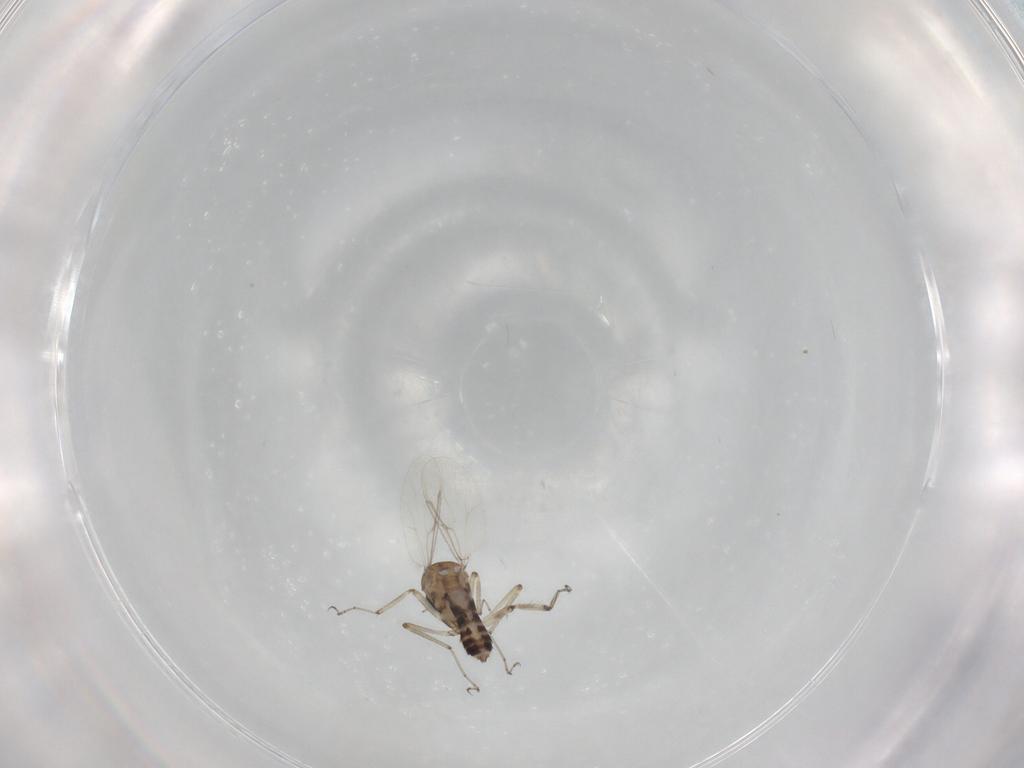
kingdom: Animalia
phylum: Arthropoda
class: Insecta
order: Diptera
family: Ceratopogonidae
